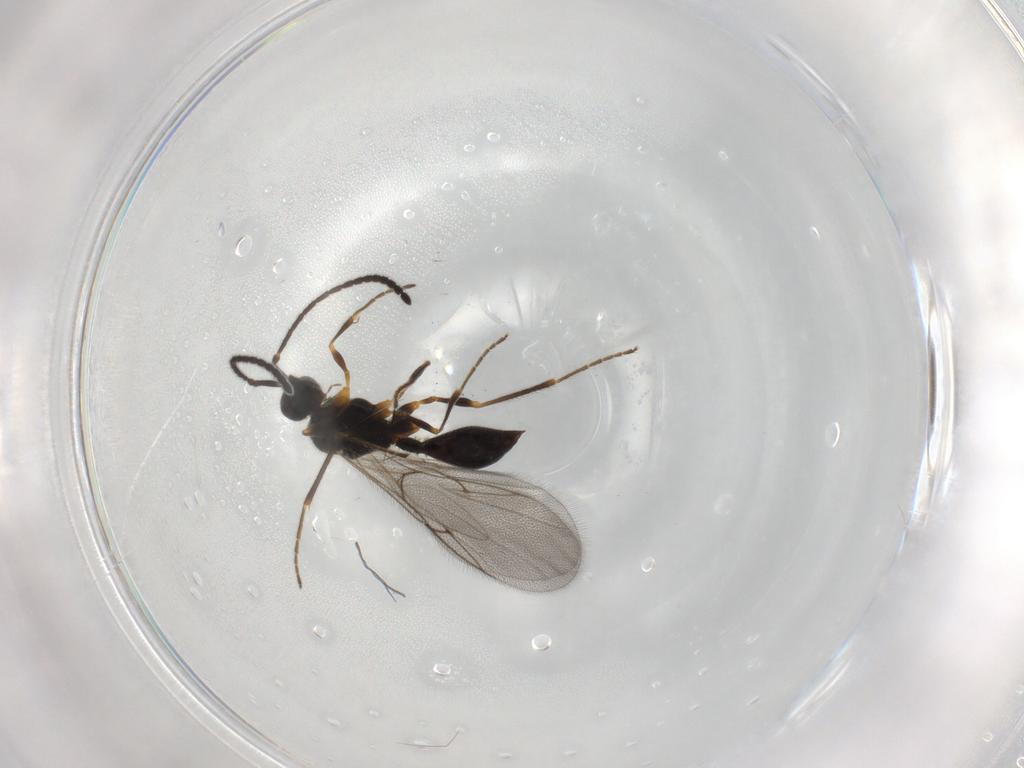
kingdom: Animalia
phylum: Arthropoda
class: Insecta
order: Hymenoptera
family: Diapriidae
